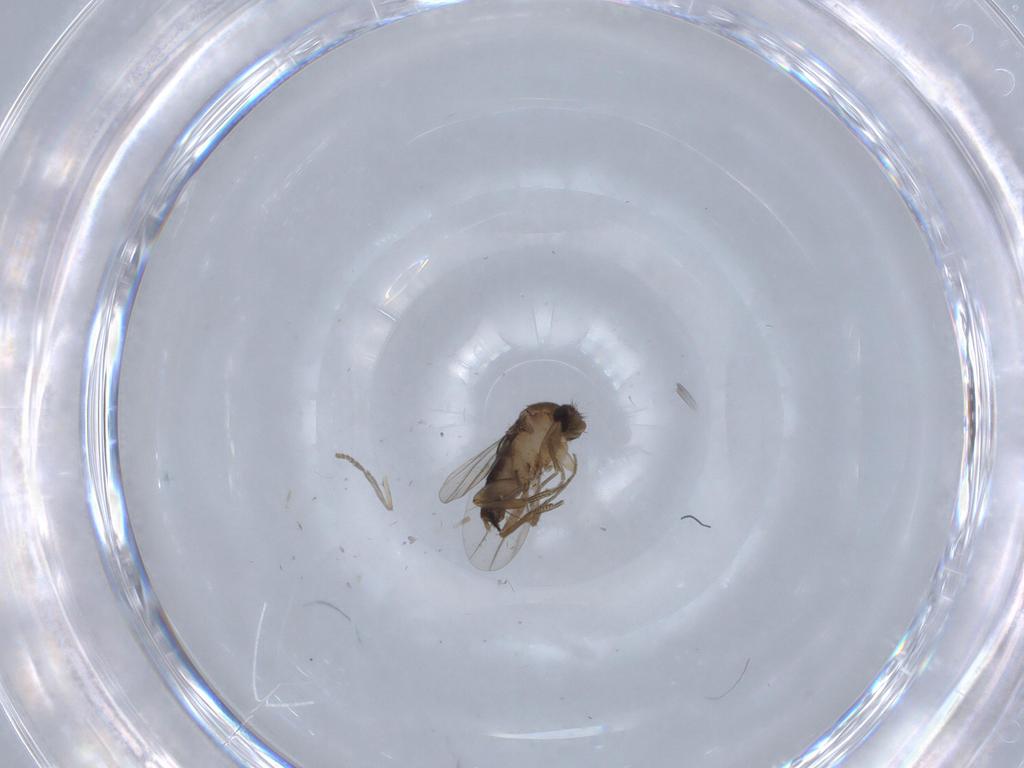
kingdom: Animalia
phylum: Arthropoda
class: Insecta
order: Diptera
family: Phoridae
